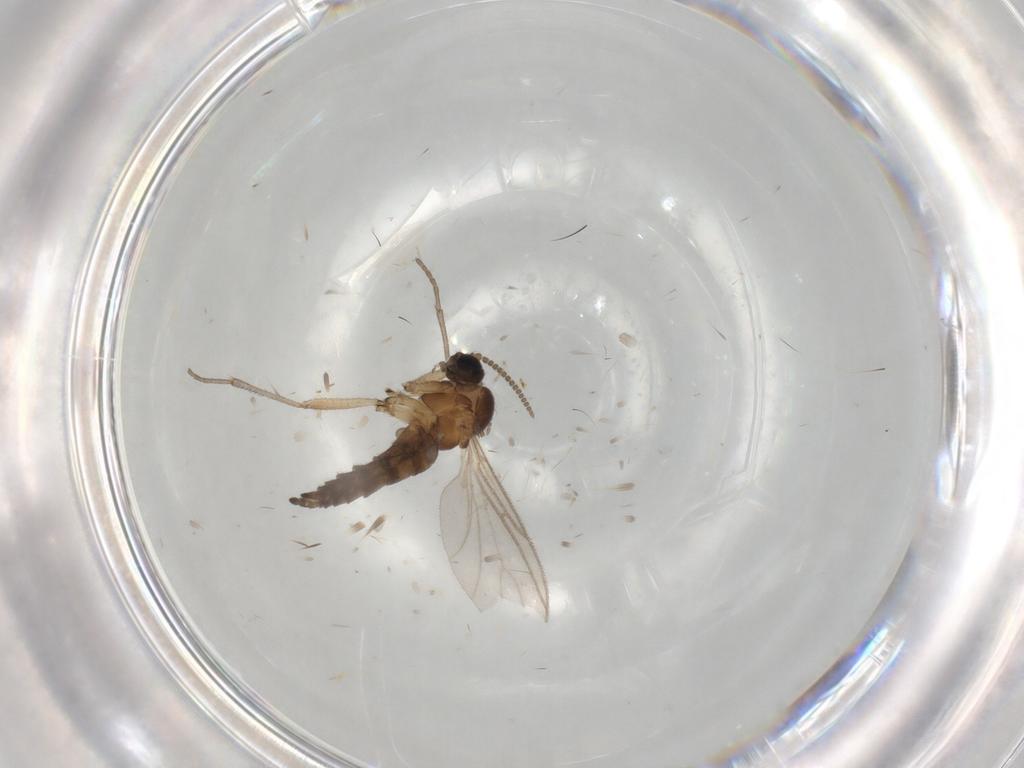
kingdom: Animalia
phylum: Arthropoda
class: Insecta
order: Diptera
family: Sciaridae
